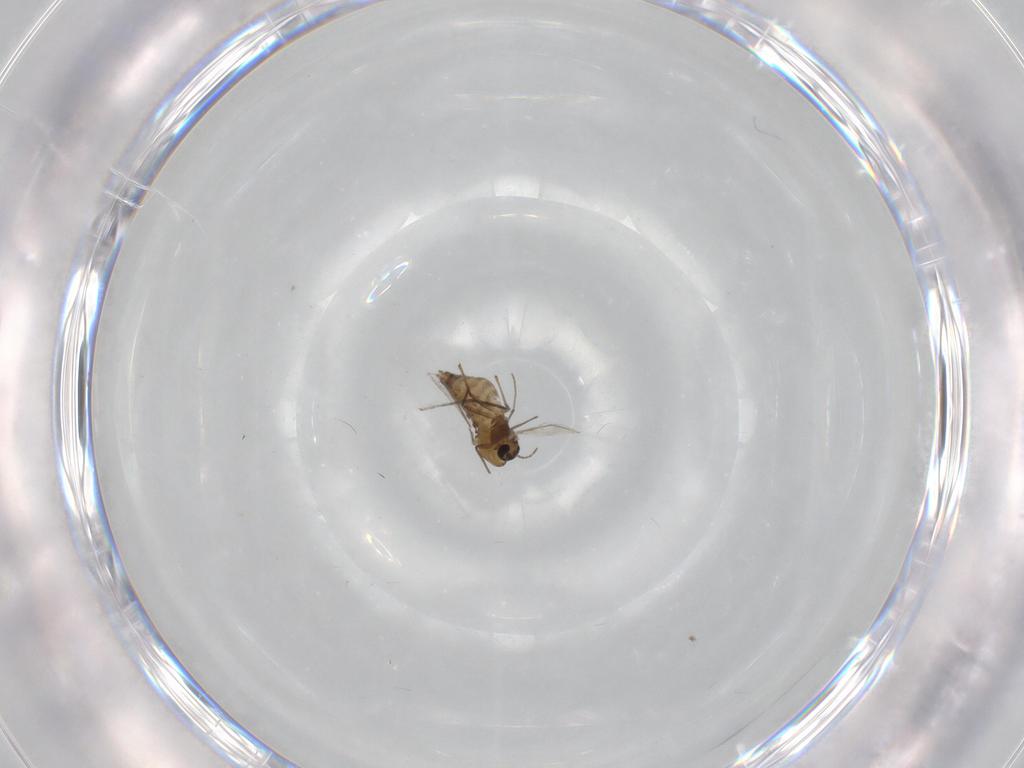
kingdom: Animalia
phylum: Arthropoda
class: Insecta
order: Diptera
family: Chironomidae
